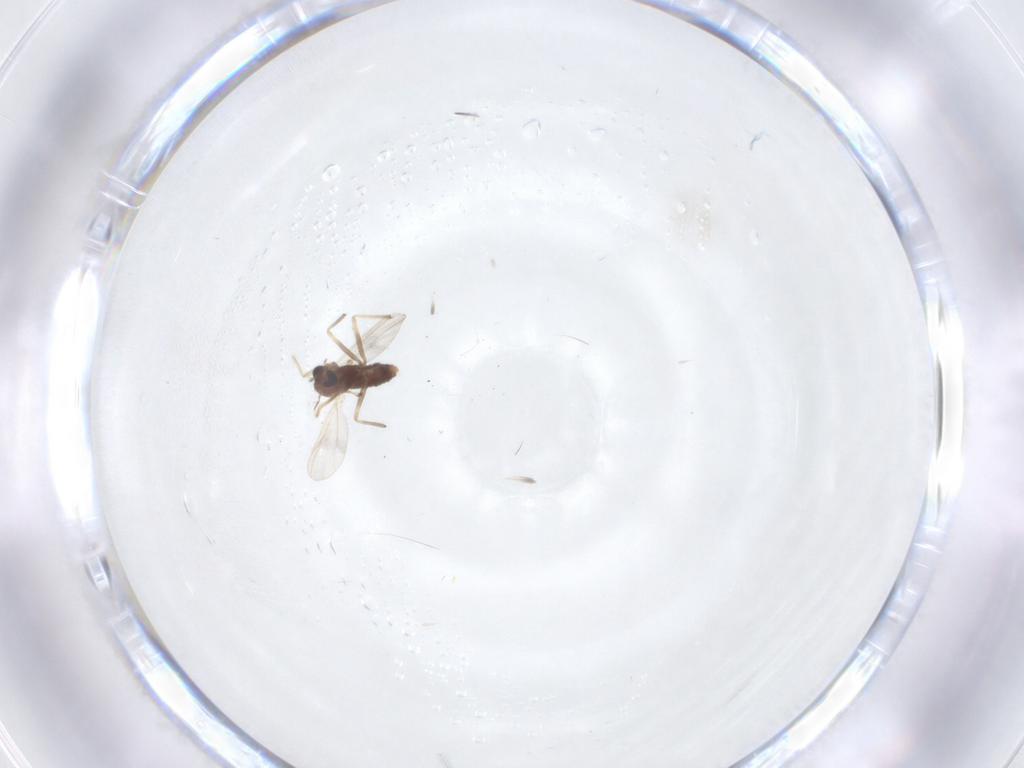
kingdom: Animalia
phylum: Arthropoda
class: Insecta
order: Diptera
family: Chironomidae
